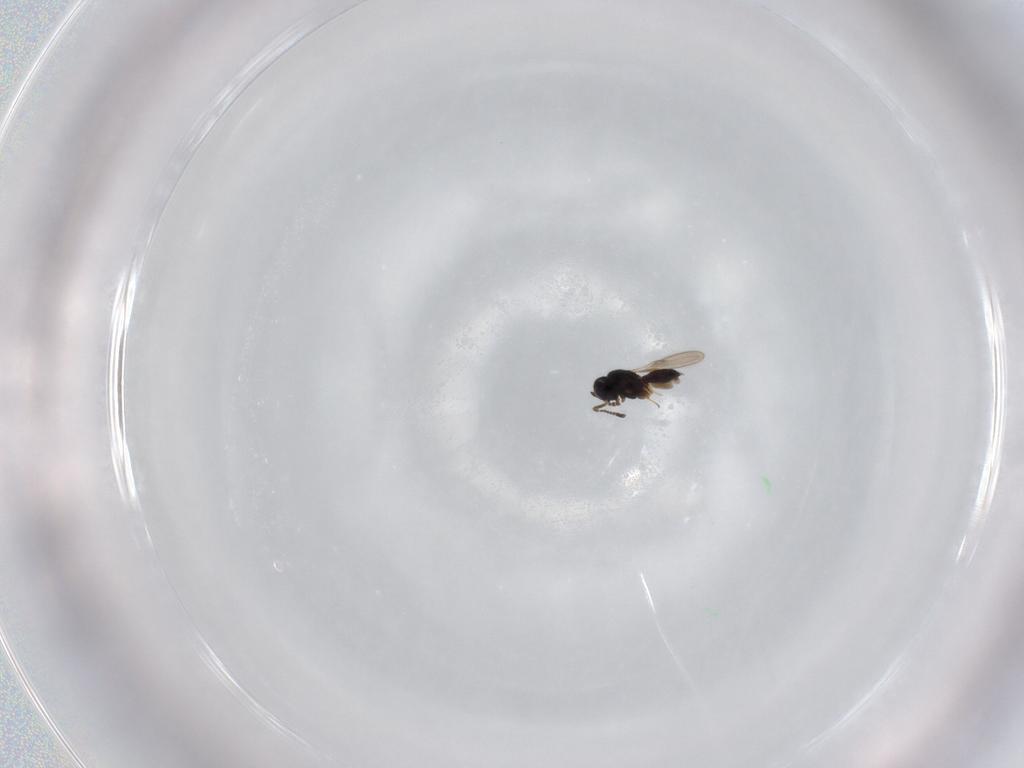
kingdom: Animalia
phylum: Arthropoda
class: Insecta
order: Hymenoptera
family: Scelionidae
